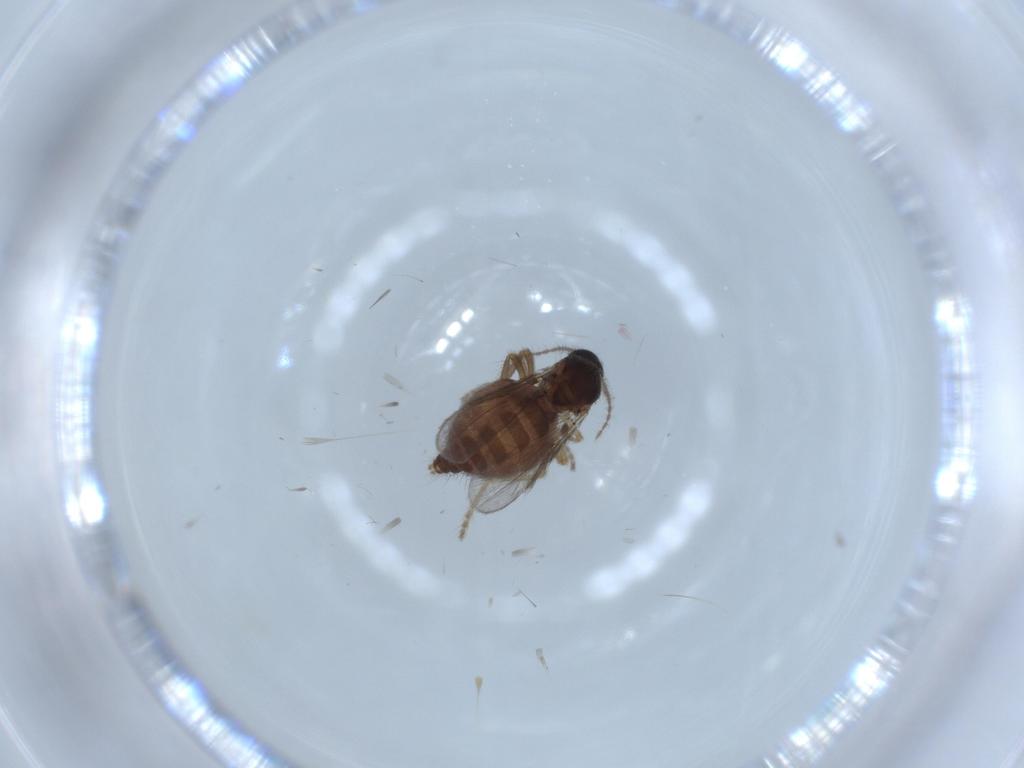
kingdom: Animalia
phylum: Arthropoda
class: Insecta
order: Diptera
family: Ceratopogonidae
